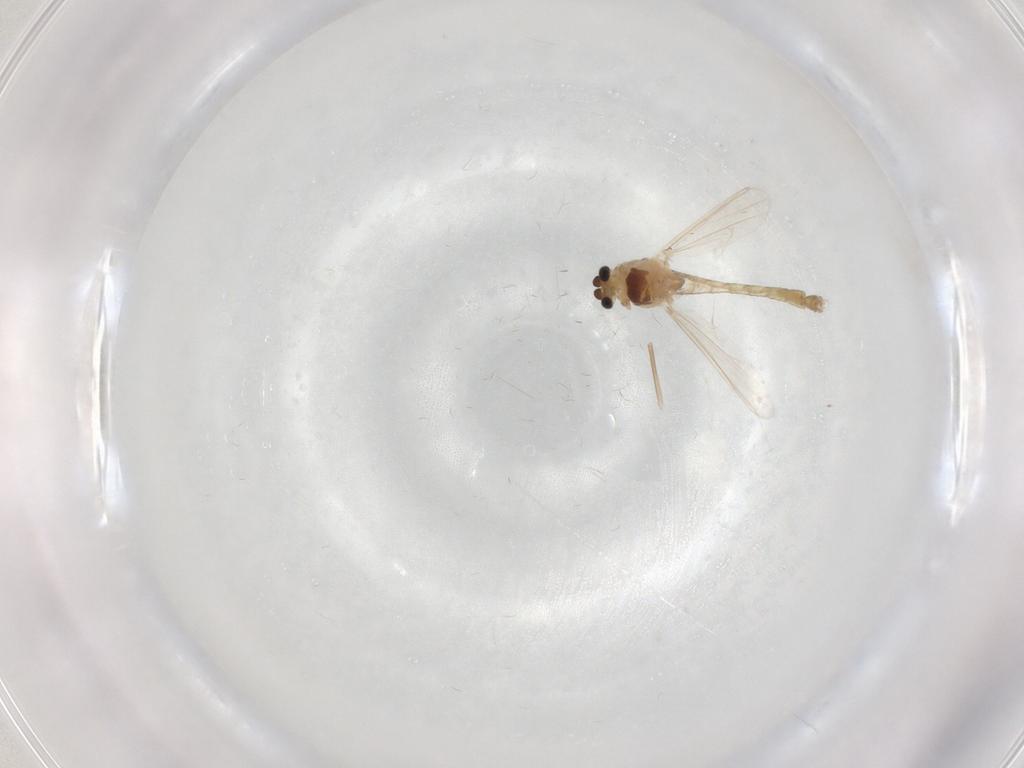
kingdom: Animalia
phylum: Arthropoda
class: Insecta
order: Diptera
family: Chironomidae
